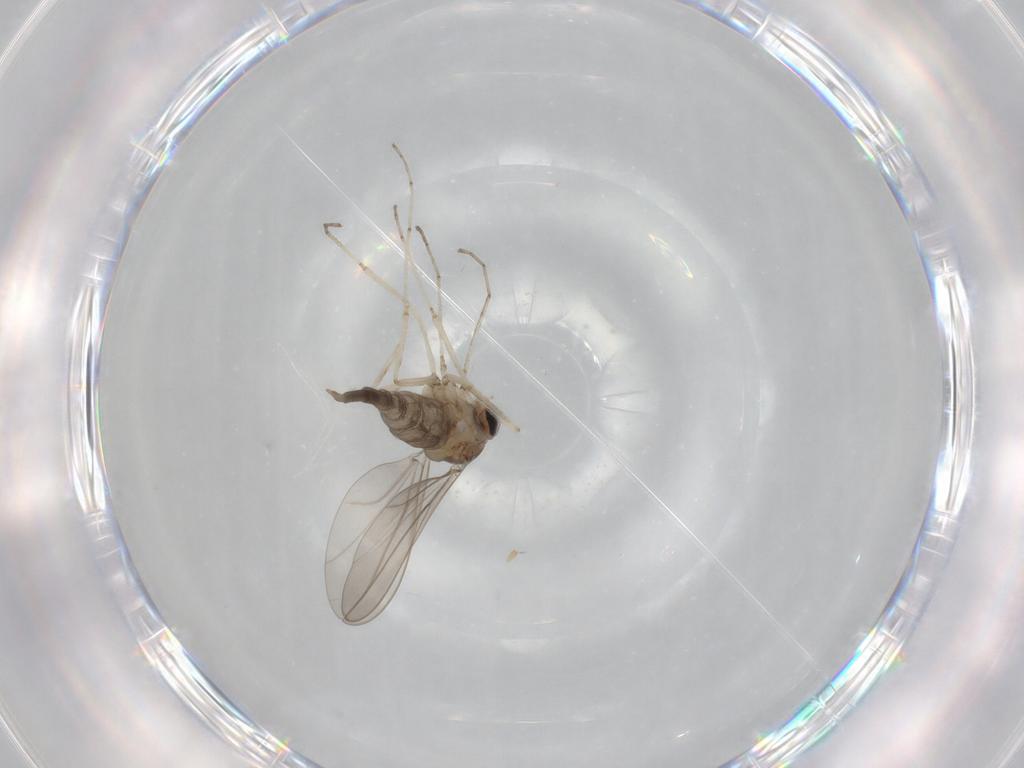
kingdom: Animalia
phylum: Arthropoda
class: Insecta
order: Diptera
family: Cecidomyiidae
